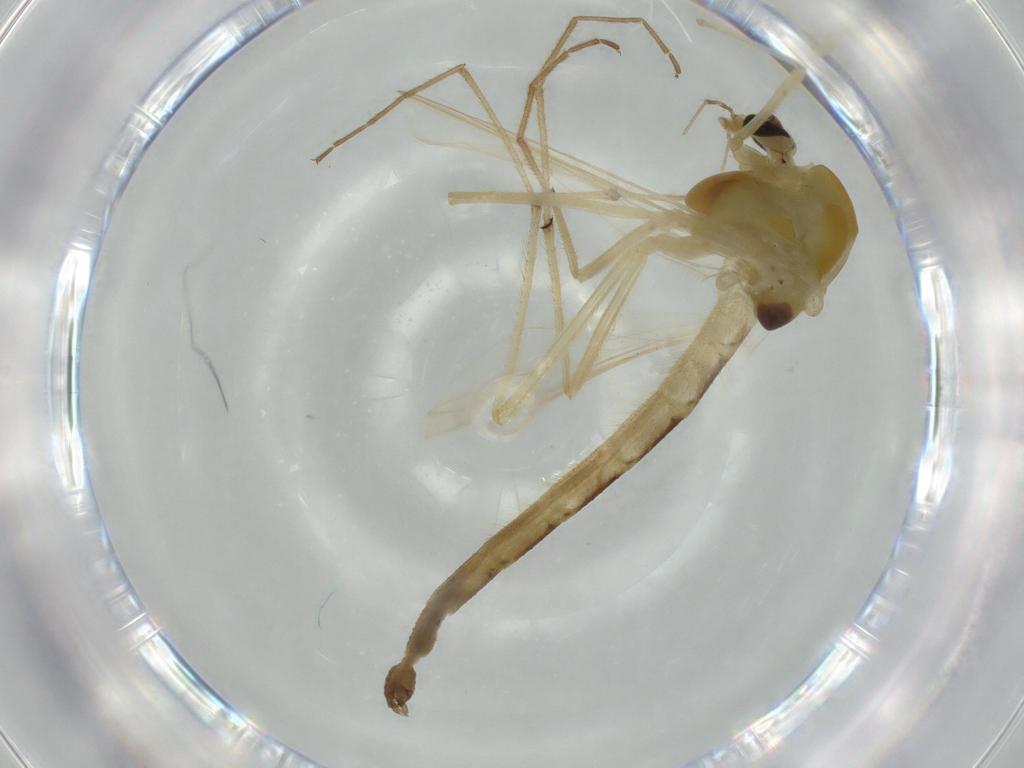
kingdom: Animalia
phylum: Arthropoda
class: Insecta
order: Diptera
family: Chironomidae
